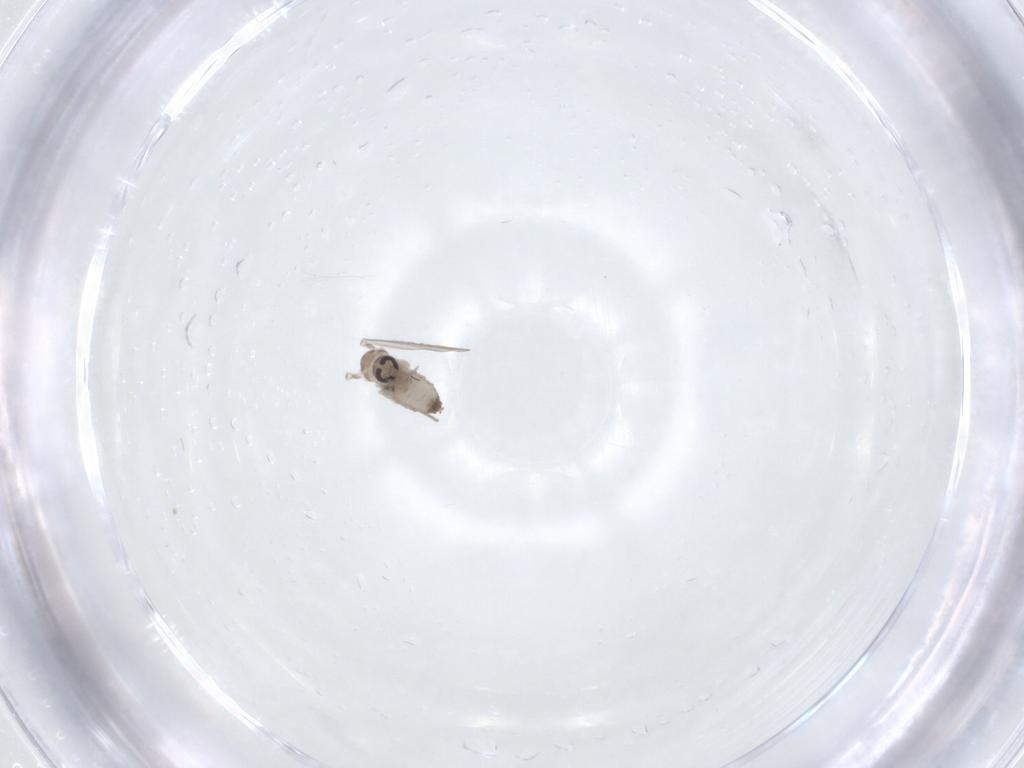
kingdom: Animalia
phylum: Arthropoda
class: Insecta
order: Diptera
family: Psychodidae
